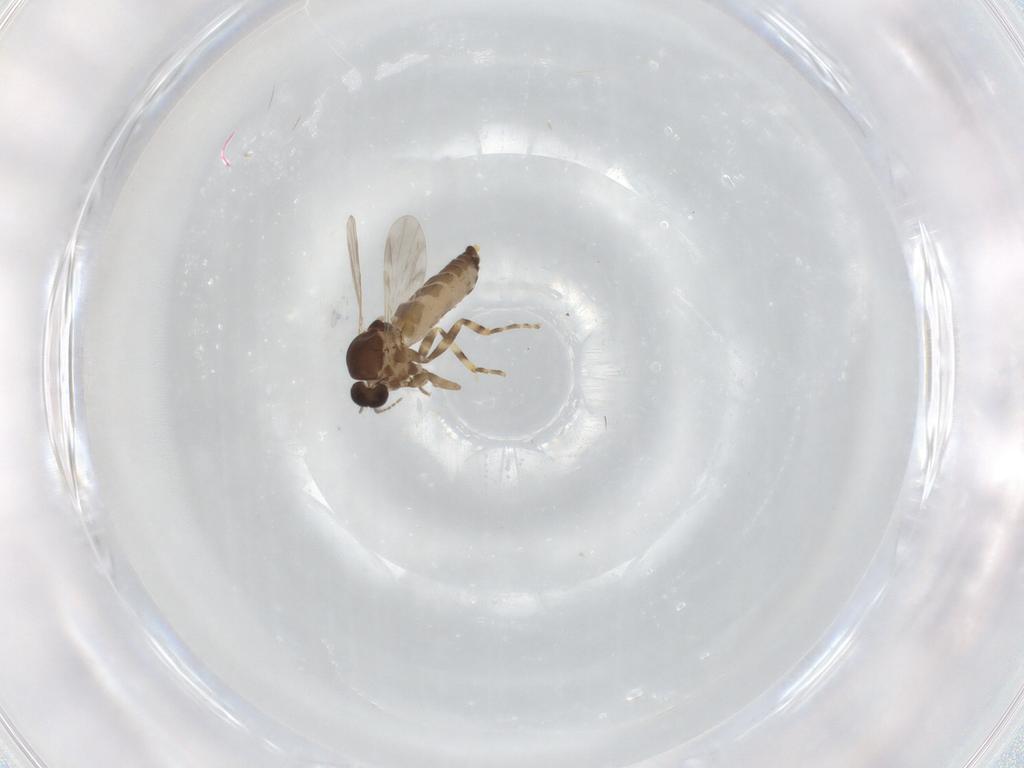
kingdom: Animalia
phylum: Arthropoda
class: Insecta
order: Diptera
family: Ceratopogonidae
